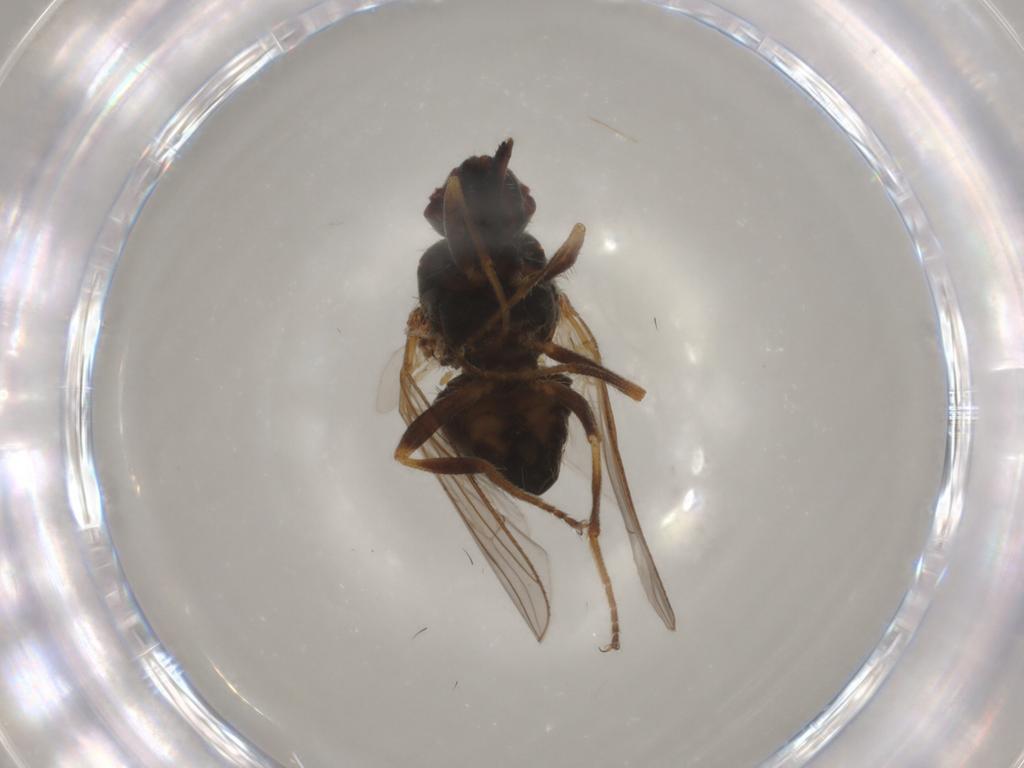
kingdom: Animalia
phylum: Arthropoda
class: Insecta
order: Diptera
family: Muscidae
